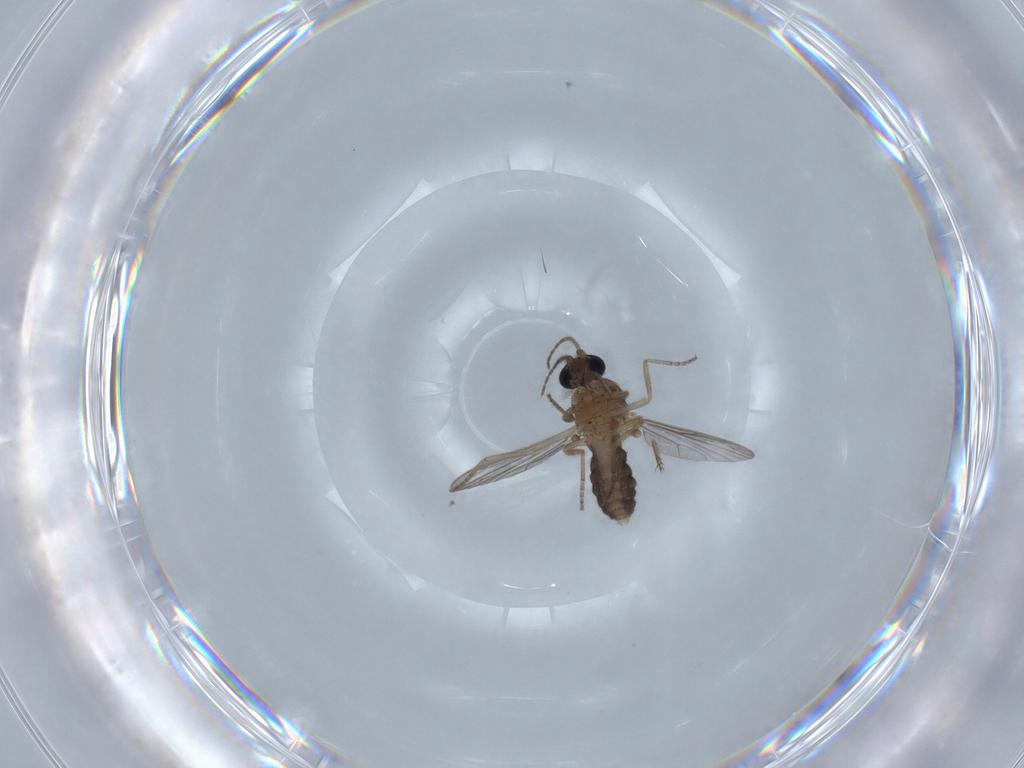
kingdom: Animalia
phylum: Arthropoda
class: Insecta
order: Diptera
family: Ceratopogonidae
